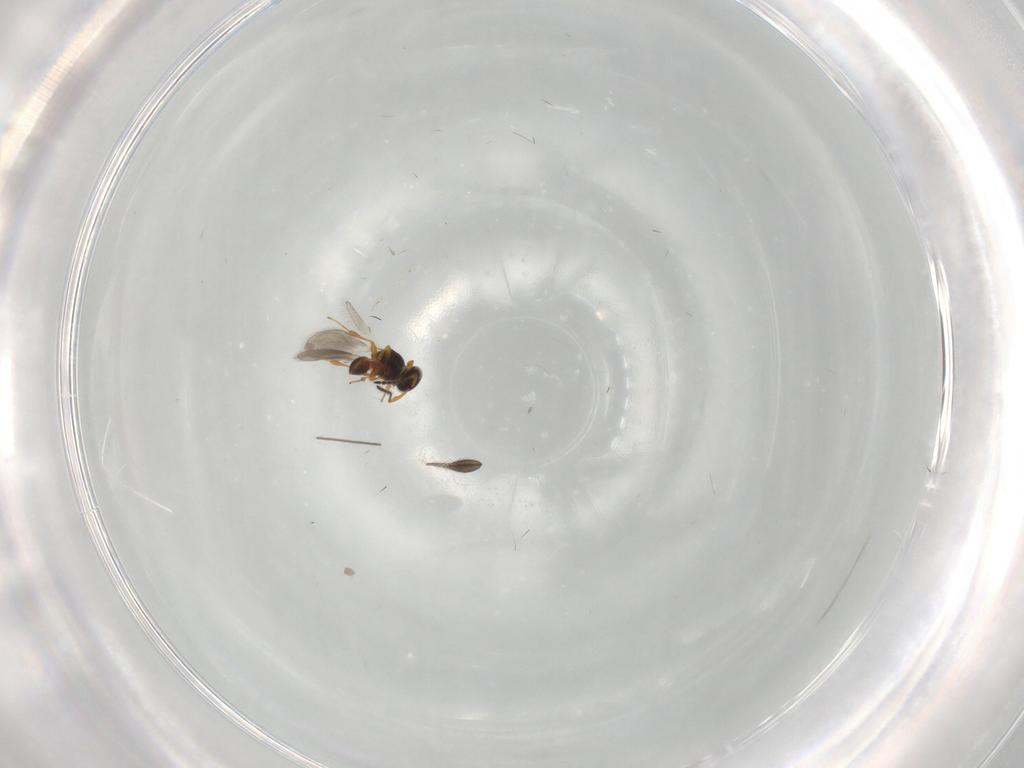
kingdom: Animalia
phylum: Arthropoda
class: Insecta
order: Hymenoptera
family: Platygastridae
